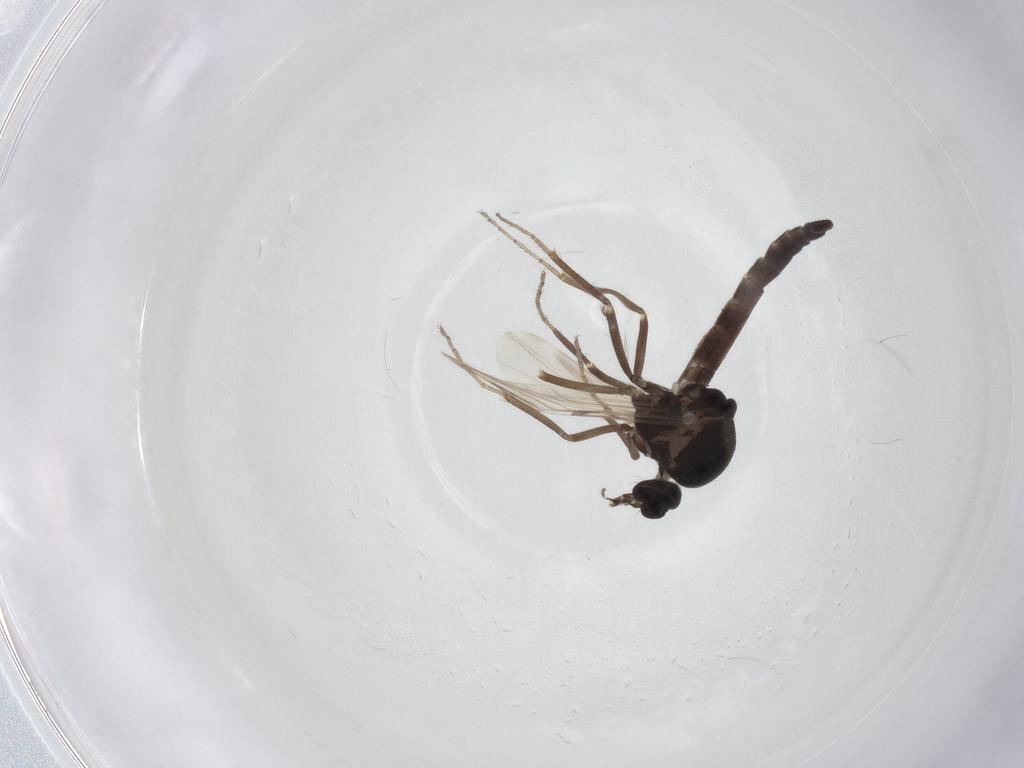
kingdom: Animalia
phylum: Arthropoda
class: Insecta
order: Diptera
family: Ceratopogonidae
